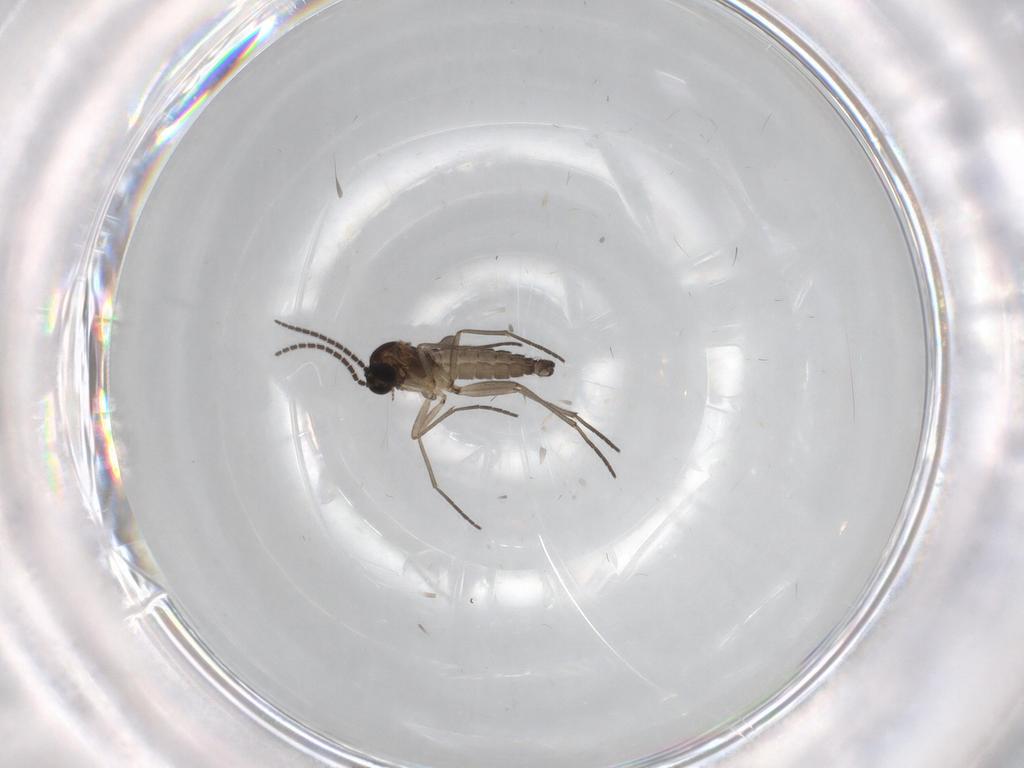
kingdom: Animalia
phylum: Arthropoda
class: Insecta
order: Diptera
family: Sciaridae
